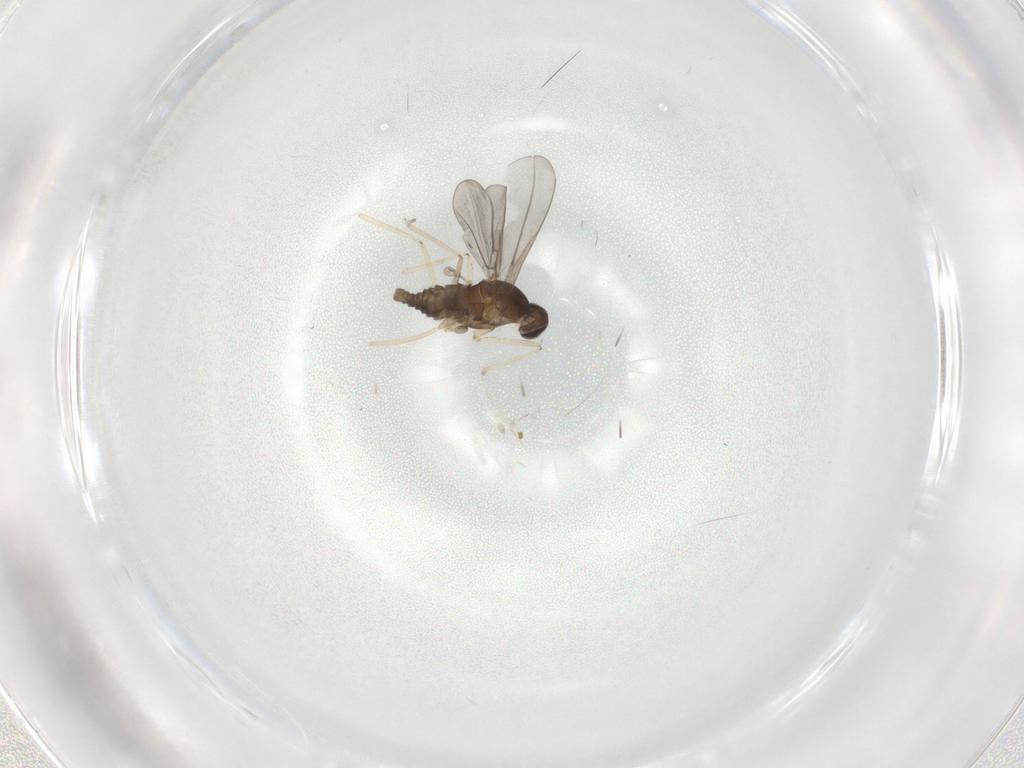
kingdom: Animalia
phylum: Arthropoda
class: Insecta
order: Diptera
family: Cecidomyiidae
